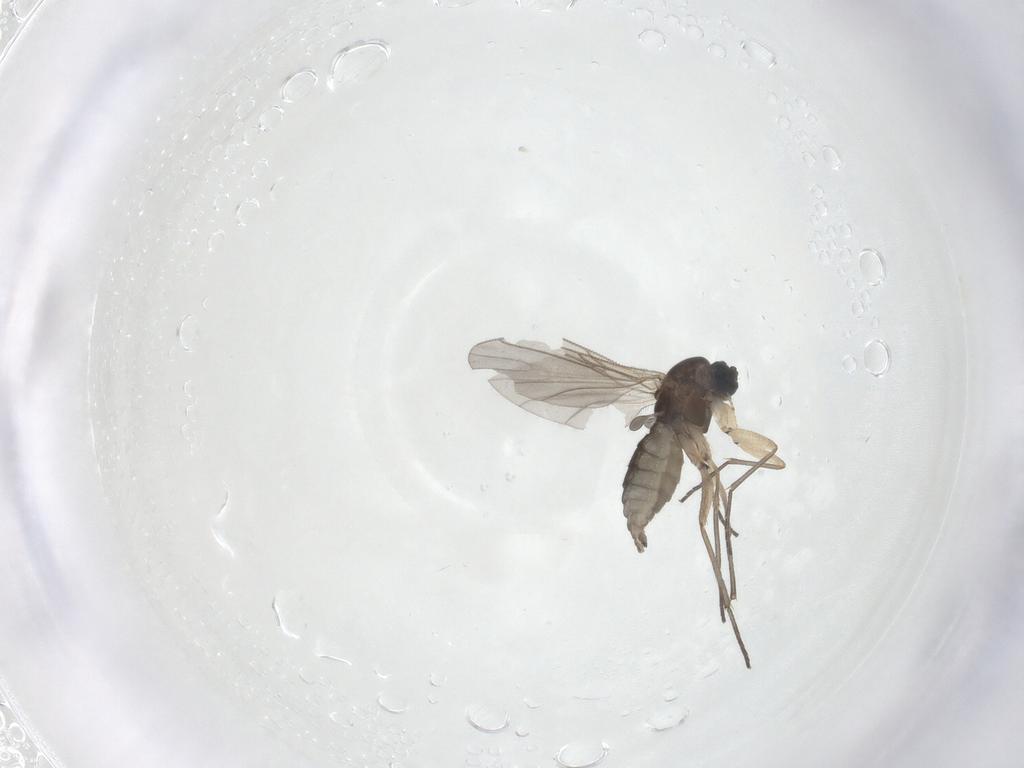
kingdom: Animalia
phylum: Arthropoda
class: Insecta
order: Diptera
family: Sciaridae
